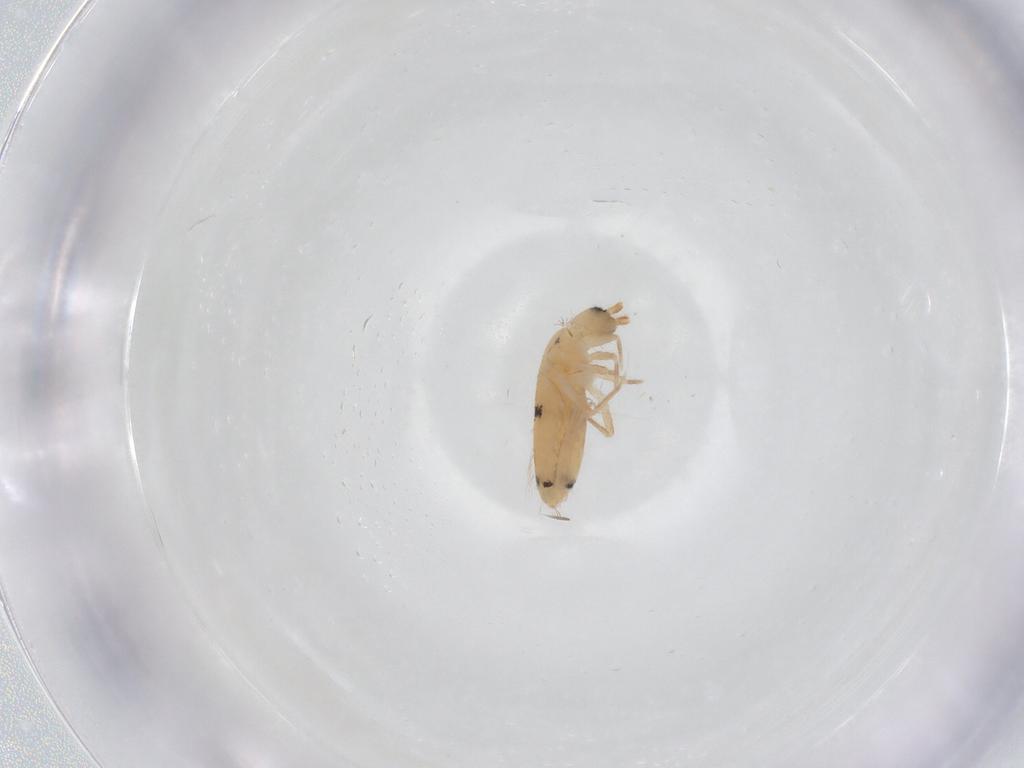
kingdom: Animalia
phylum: Arthropoda
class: Collembola
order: Entomobryomorpha
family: Entomobryidae
